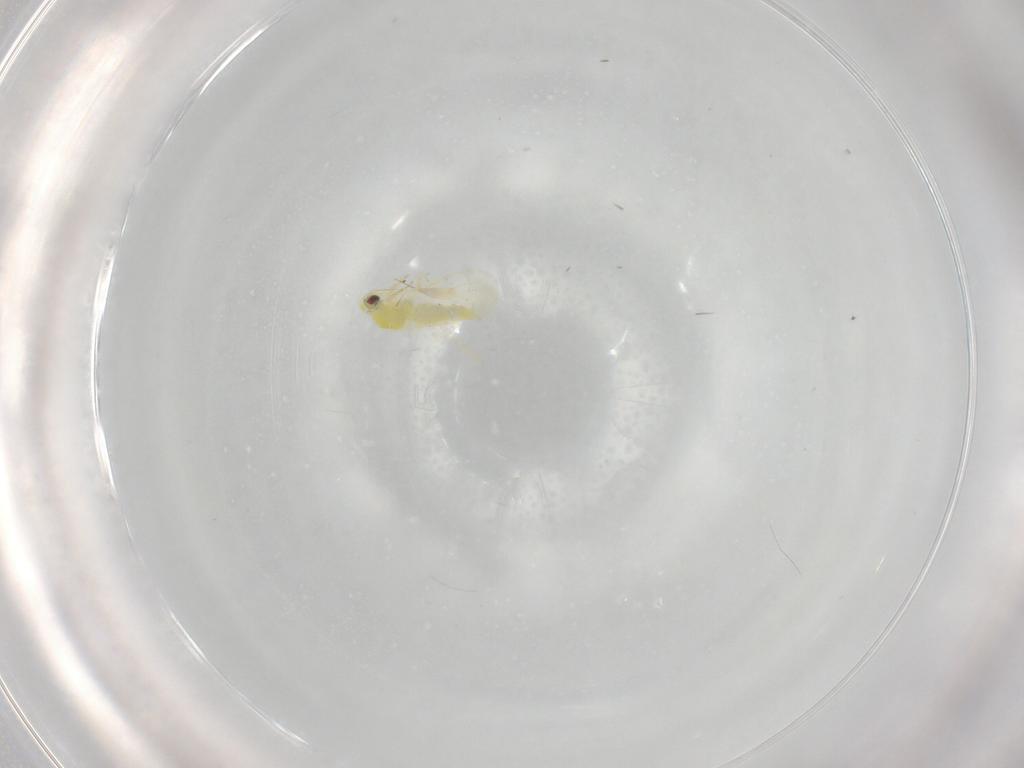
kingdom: Animalia
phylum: Arthropoda
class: Insecta
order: Hemiptera
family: Aleyrodidae
